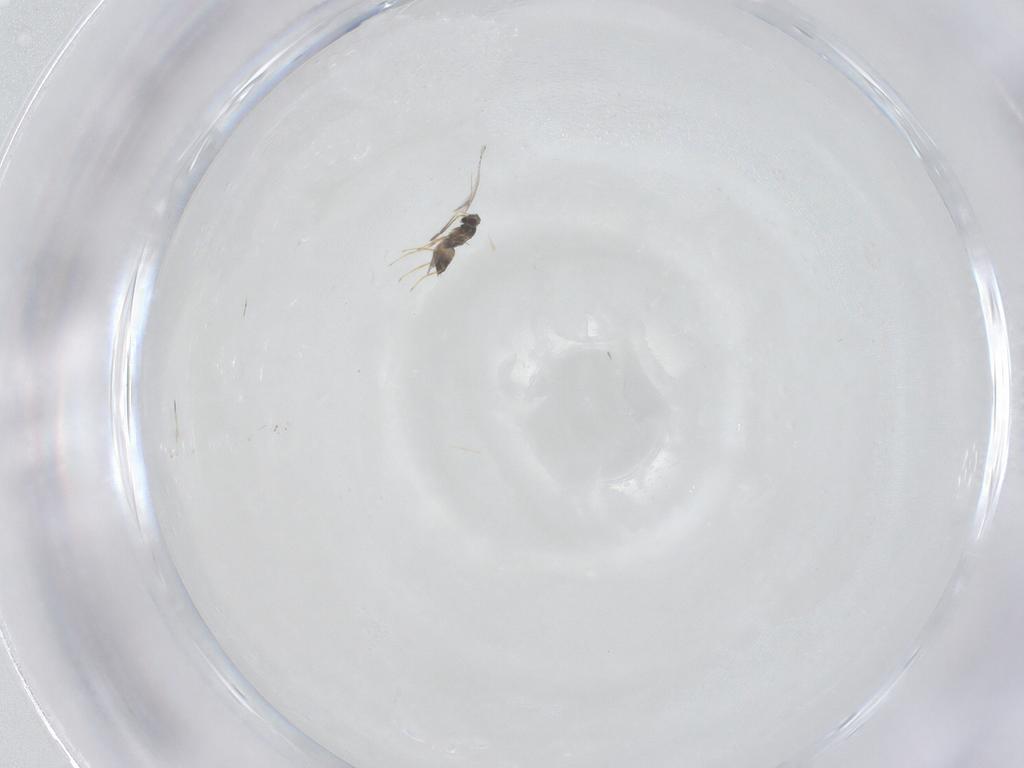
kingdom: Animalia
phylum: Arthropoda
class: Insecta
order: Hymenoptera
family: Mymaridae
